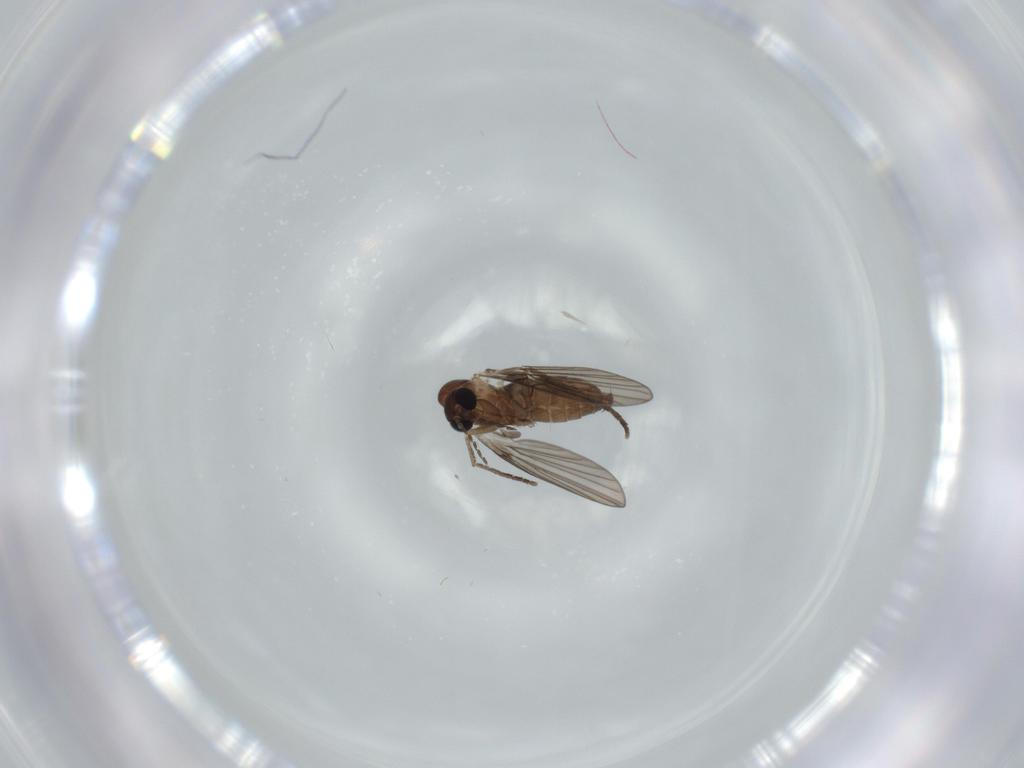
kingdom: Animalia
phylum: Arthropoda
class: Insecta
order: Diptera
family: Psychodidae
